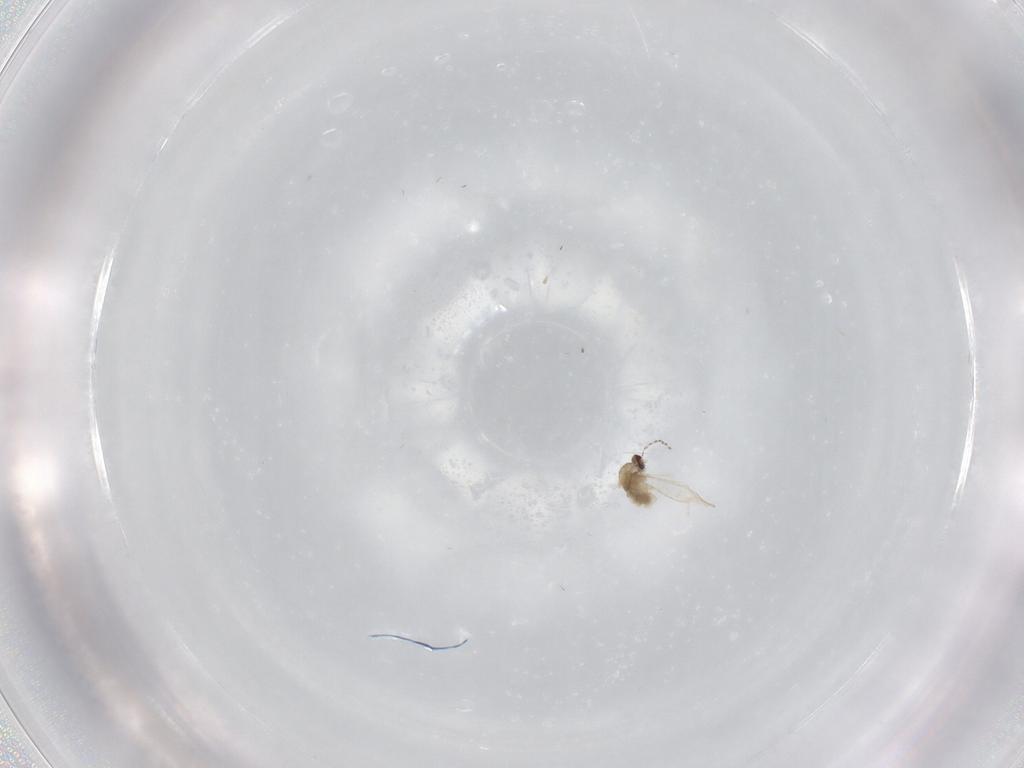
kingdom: Animalia
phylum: Arthropoda
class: Insecta
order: Diptera
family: Cecidomyiidae
